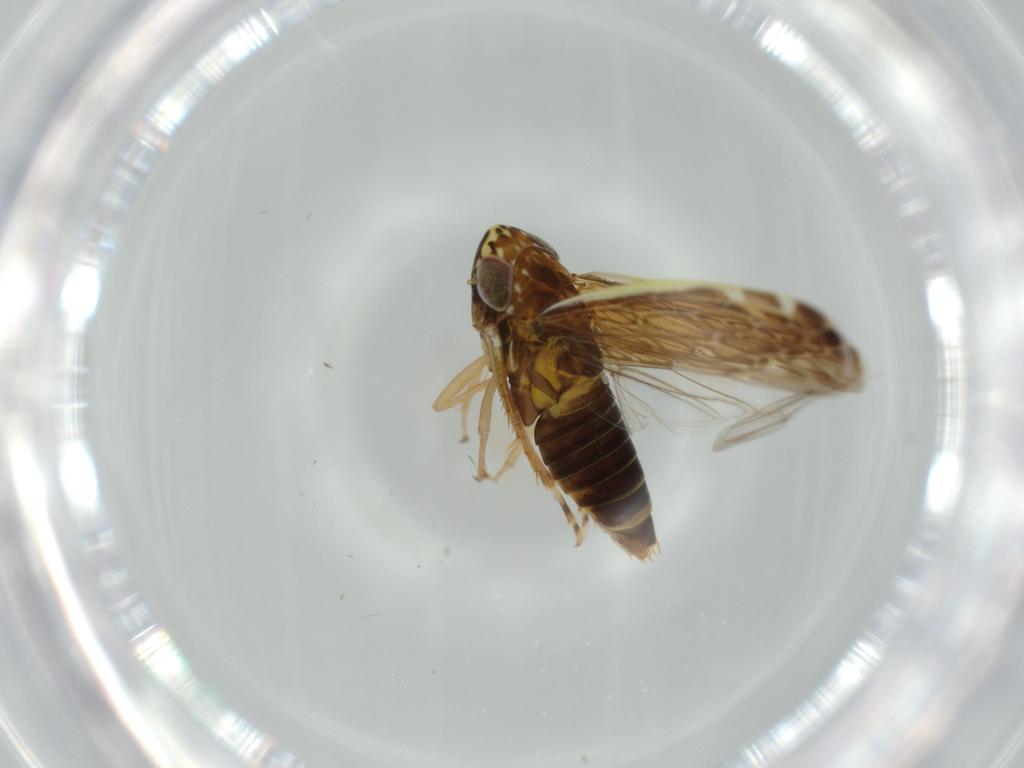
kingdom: Animalia
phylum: Arthropoda
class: Insecta
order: Hemiptera
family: Cicadellidae
